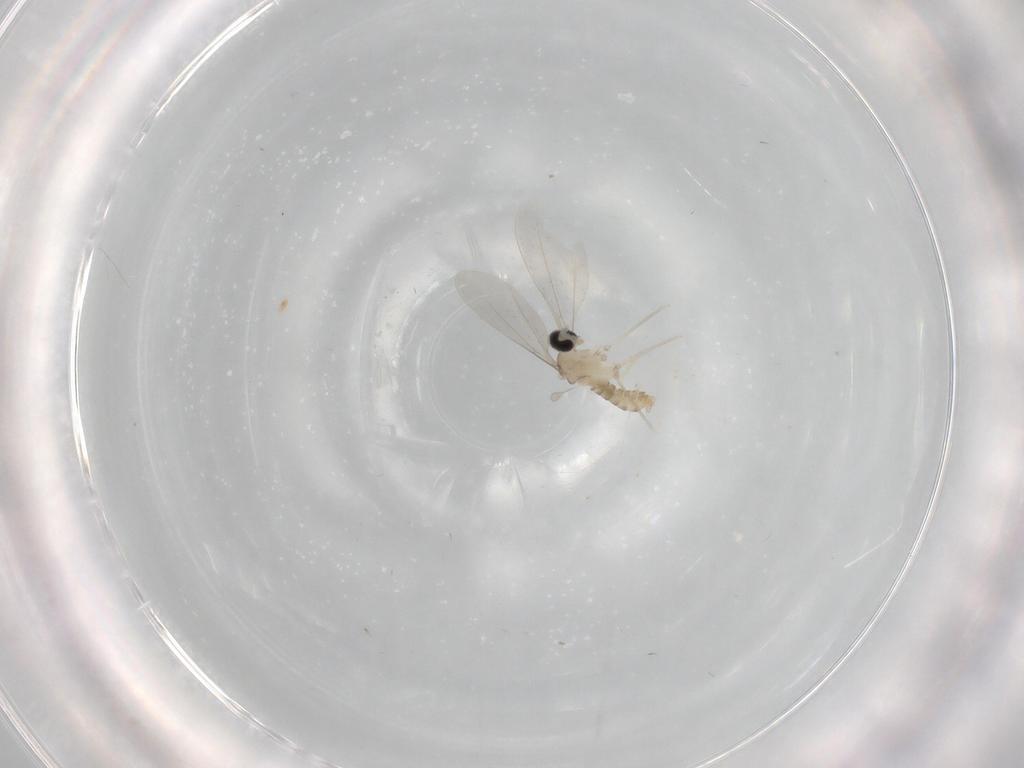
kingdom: Animalia
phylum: Arthropoda
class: Insecta
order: Diptera
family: Cecidomyiidae
